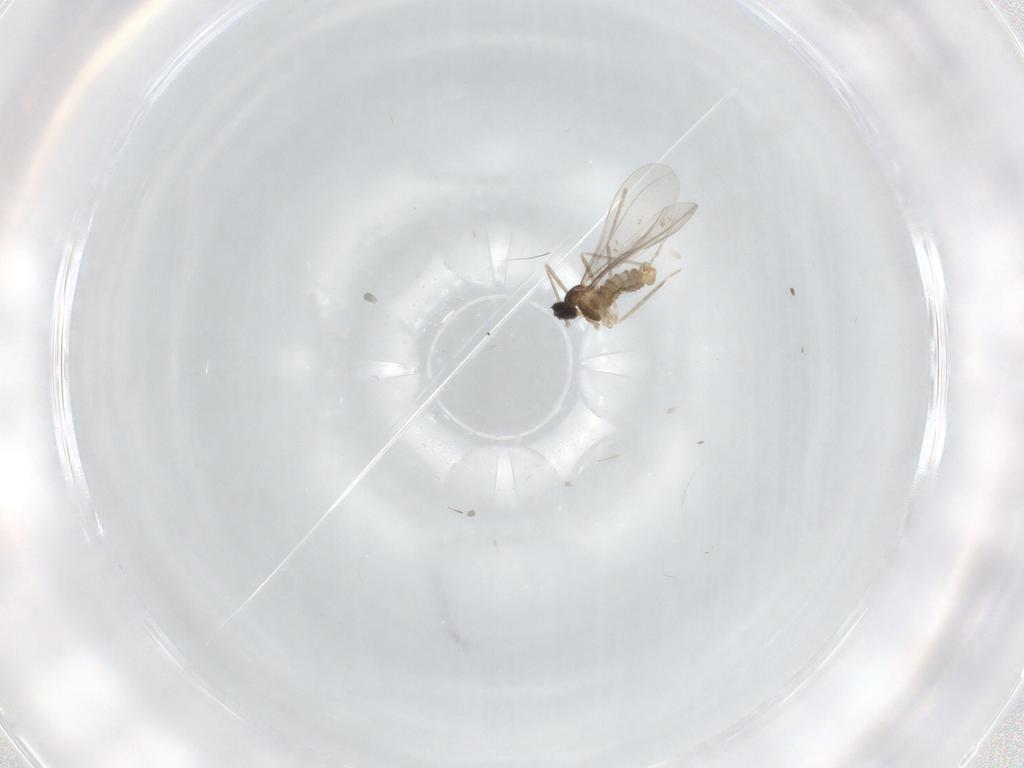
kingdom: Animalia
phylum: Arthropoda
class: Insecta
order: Diptera
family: Cecidomyiidae
